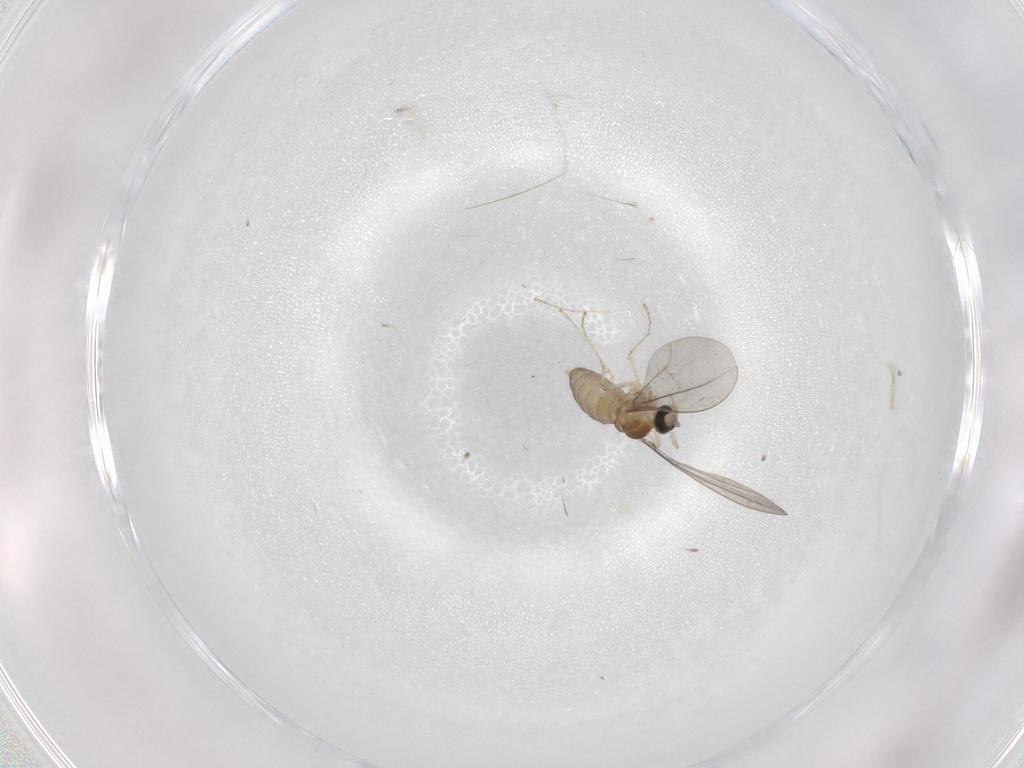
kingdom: Animalia
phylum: Arthropoda
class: Insecta
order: Diptera
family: Cecidomyiidae
